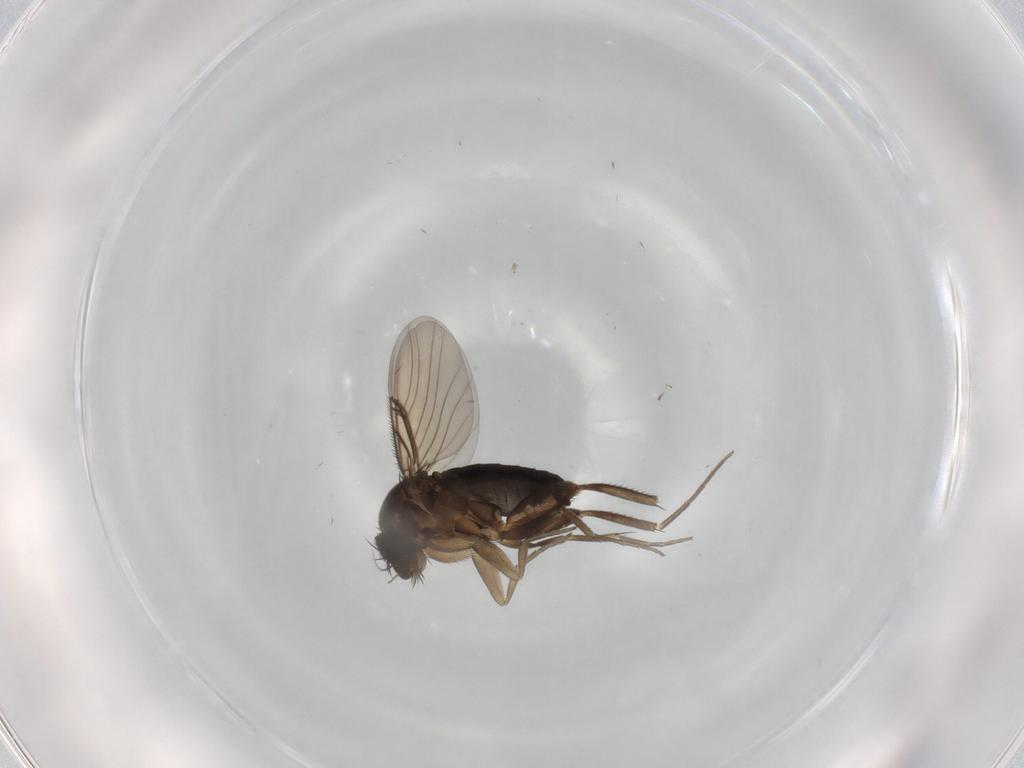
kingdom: Animalia
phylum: Arthropoda
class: Insecta
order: Diptera
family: Phoridae
